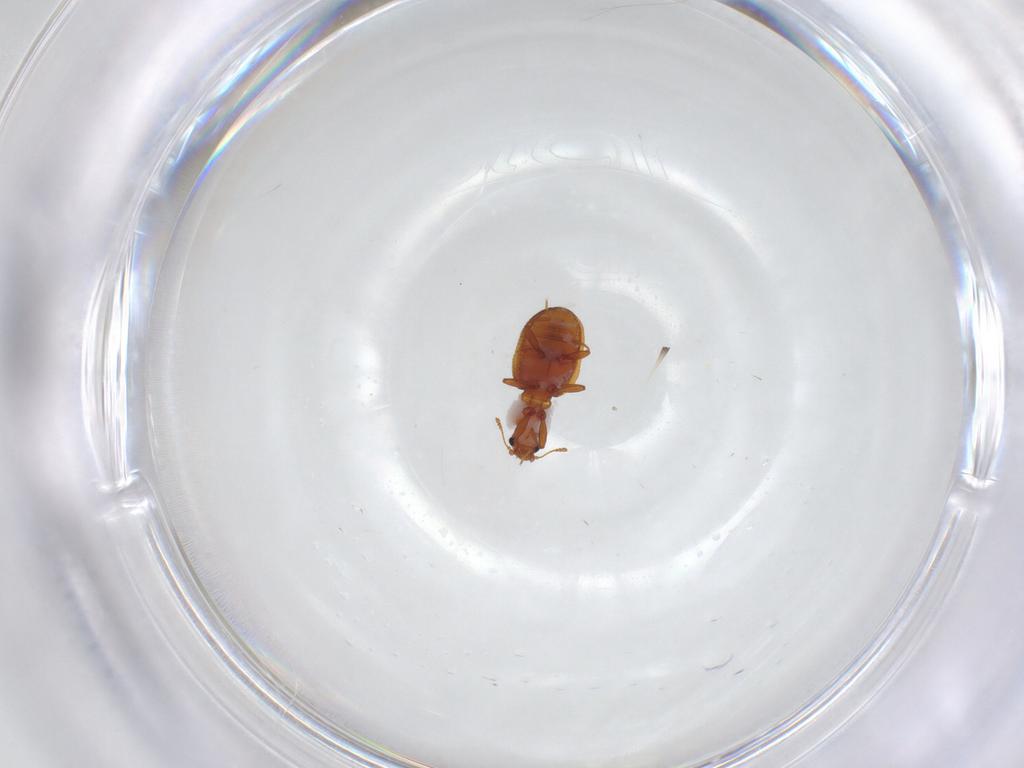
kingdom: Animalia
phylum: Arthropoda
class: Insecta
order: Coleoptera
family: Latridiidae
